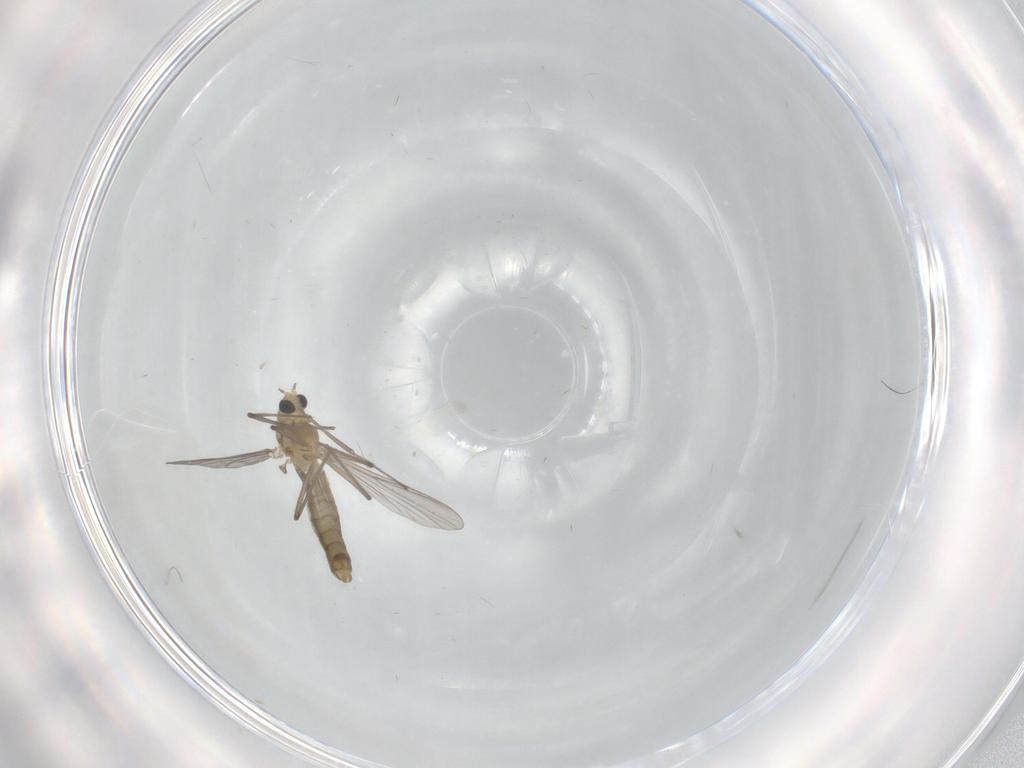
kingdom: Animalia
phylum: Arthropoda
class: Insecta
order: Diptera
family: Chironomidae
